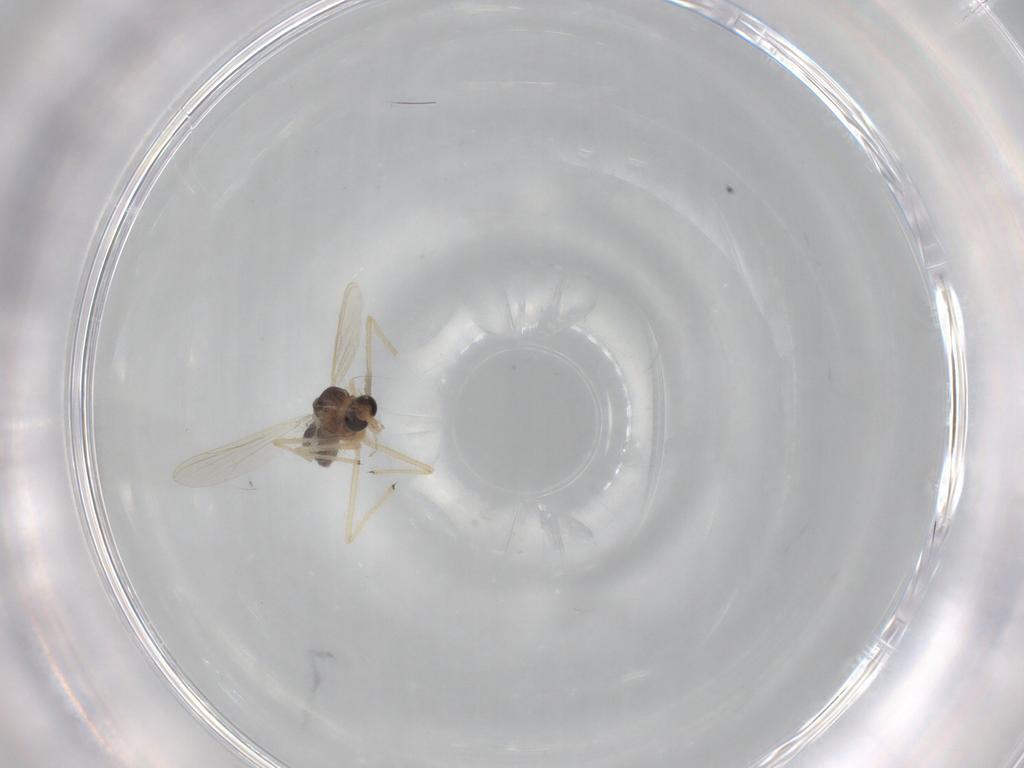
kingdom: Animalia
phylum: Arthropoda
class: Insecta
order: Diptera
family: Chironomidae
